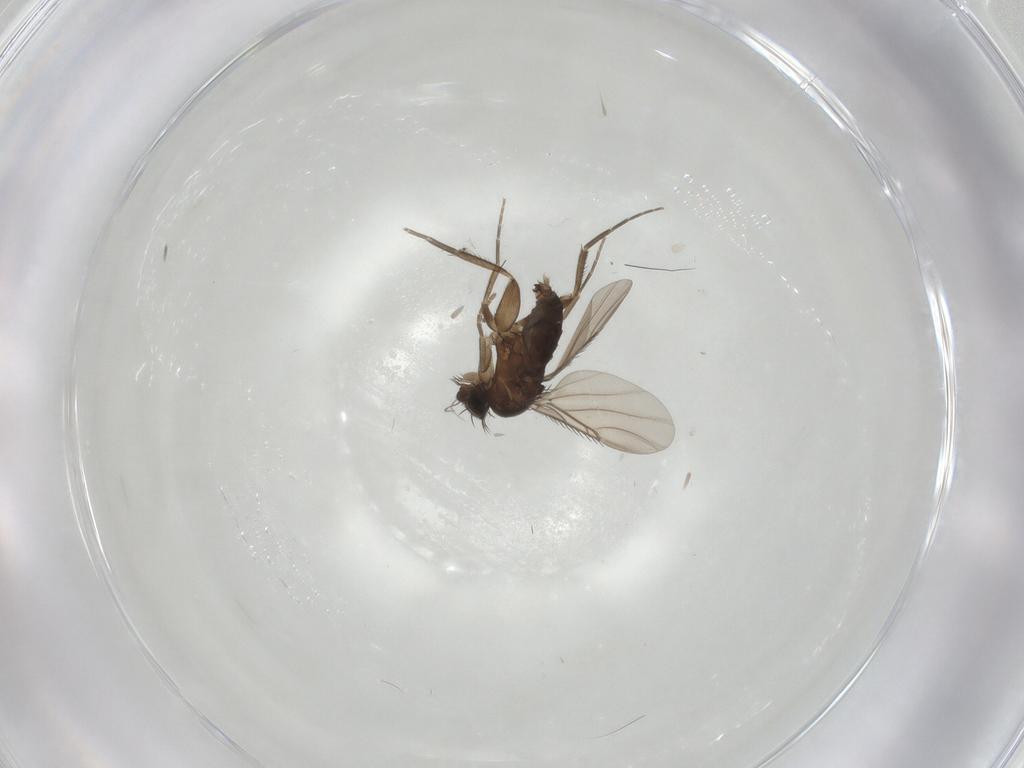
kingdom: Animalia
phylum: Arthropoda
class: Insecta
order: Diptera
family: Phoridae
